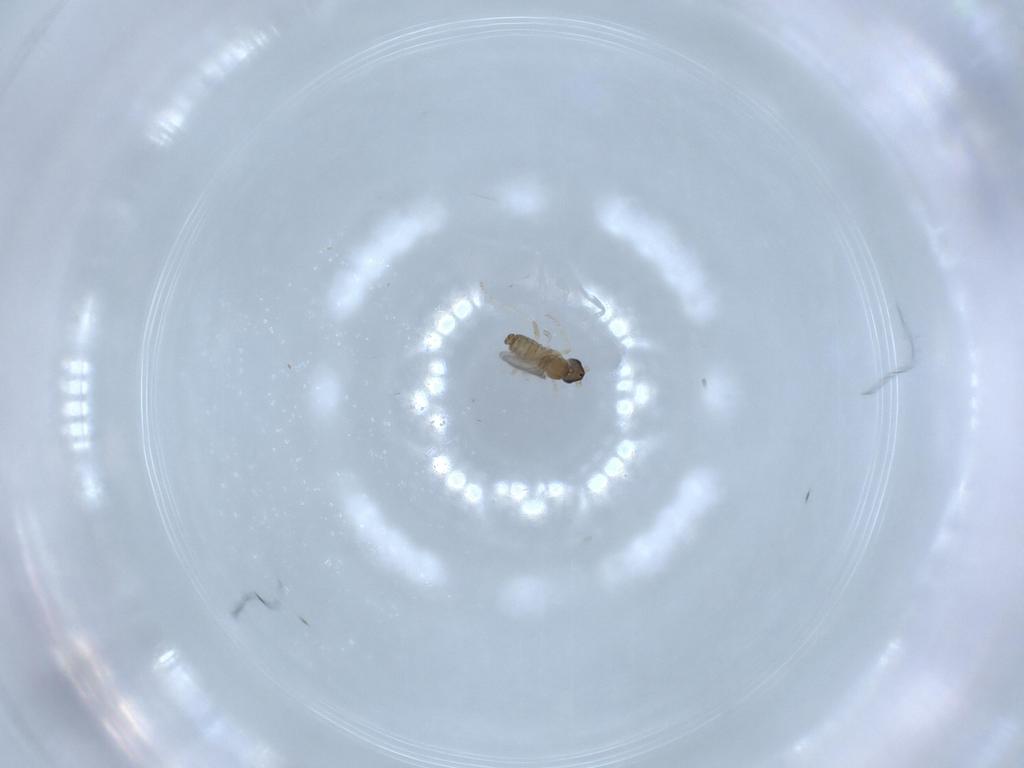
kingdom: Animalia
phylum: Arthropoda
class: Insecta
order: Diptera
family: Cecidomyiidae
